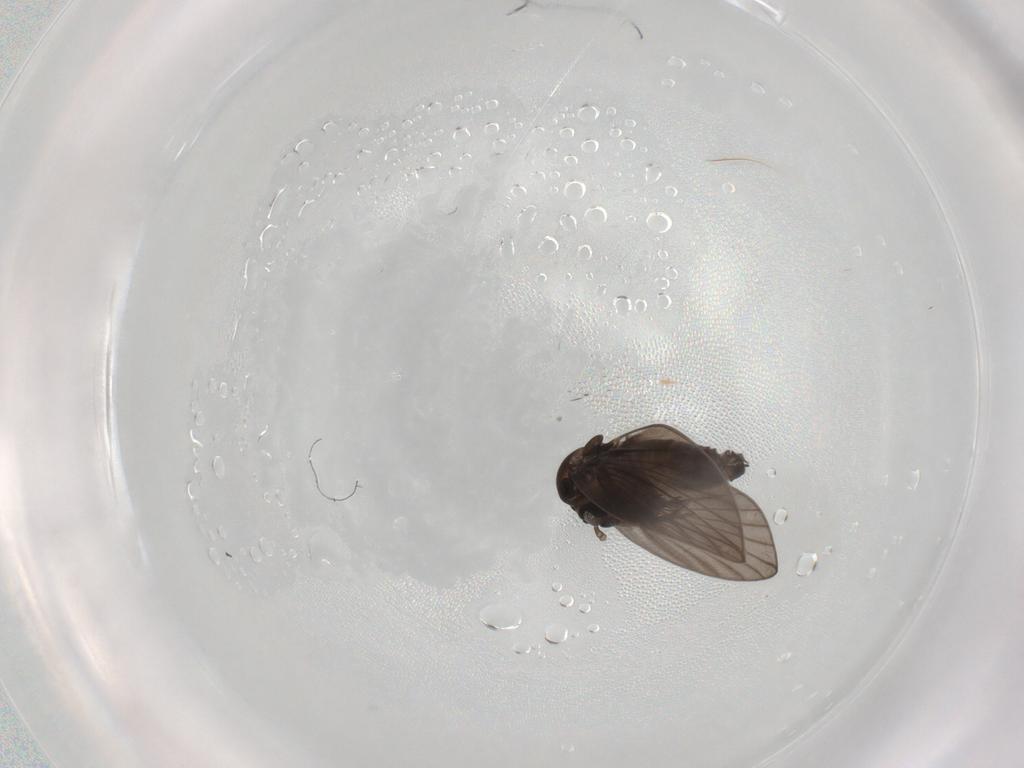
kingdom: Animalia
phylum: Arthropoda
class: Insecta
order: Diptera
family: Psychodidae
